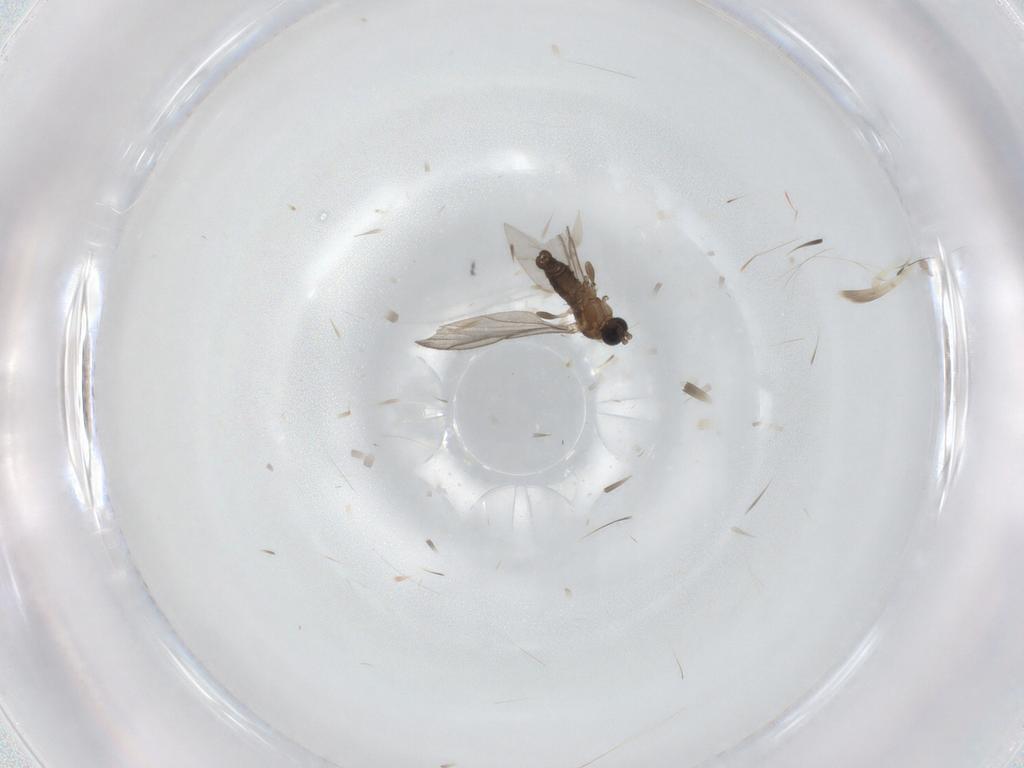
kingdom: Animalia
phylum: Arthropoda
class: Insecta
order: Diptera
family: Sciaridae
